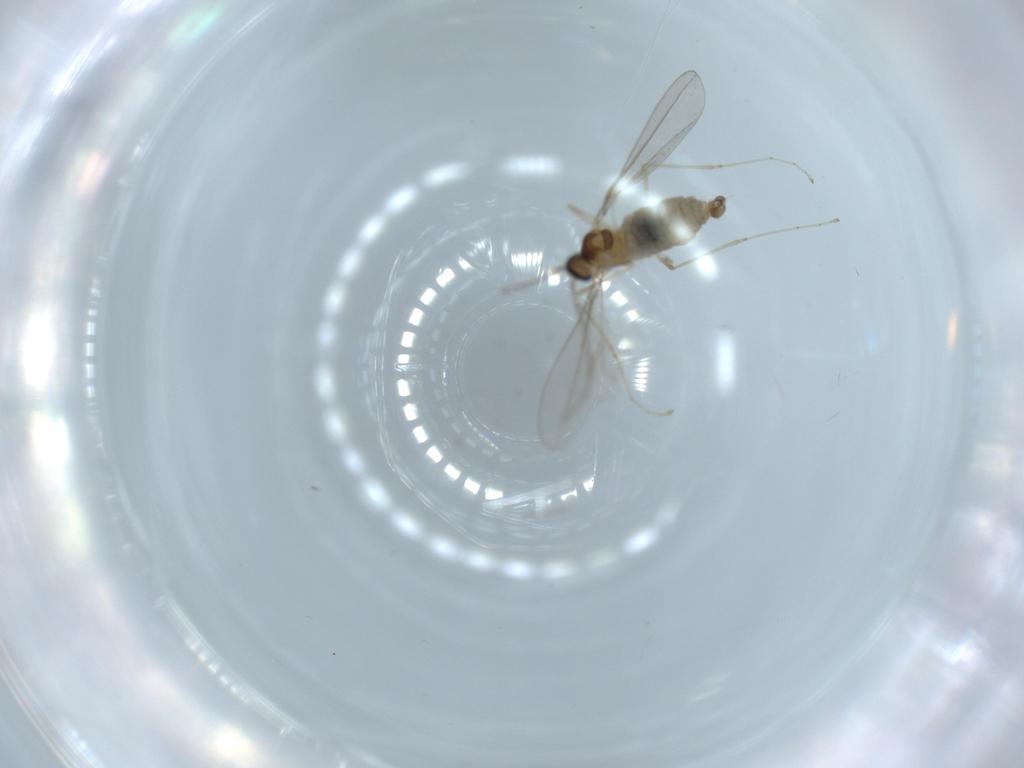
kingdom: Animalia
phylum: Arthropoda
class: Insecta
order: Diptera
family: Cecidomyiidae
